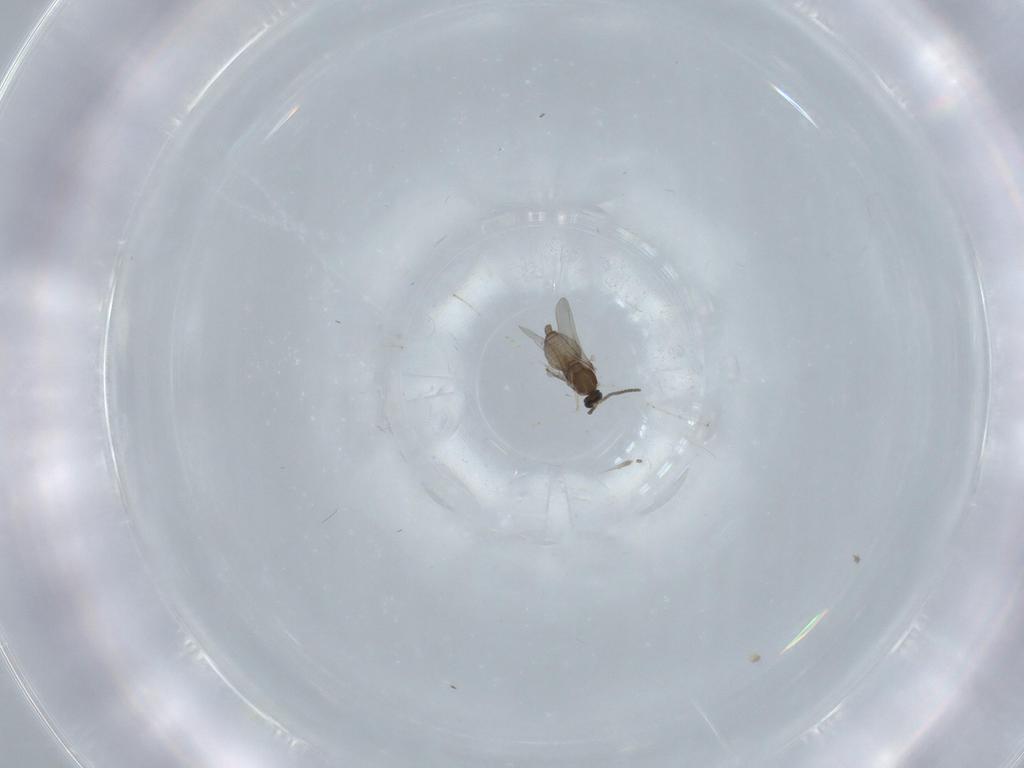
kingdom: Animalia
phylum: Arthropoda
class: Insecta
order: Diptera
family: Cecidomyiidae
